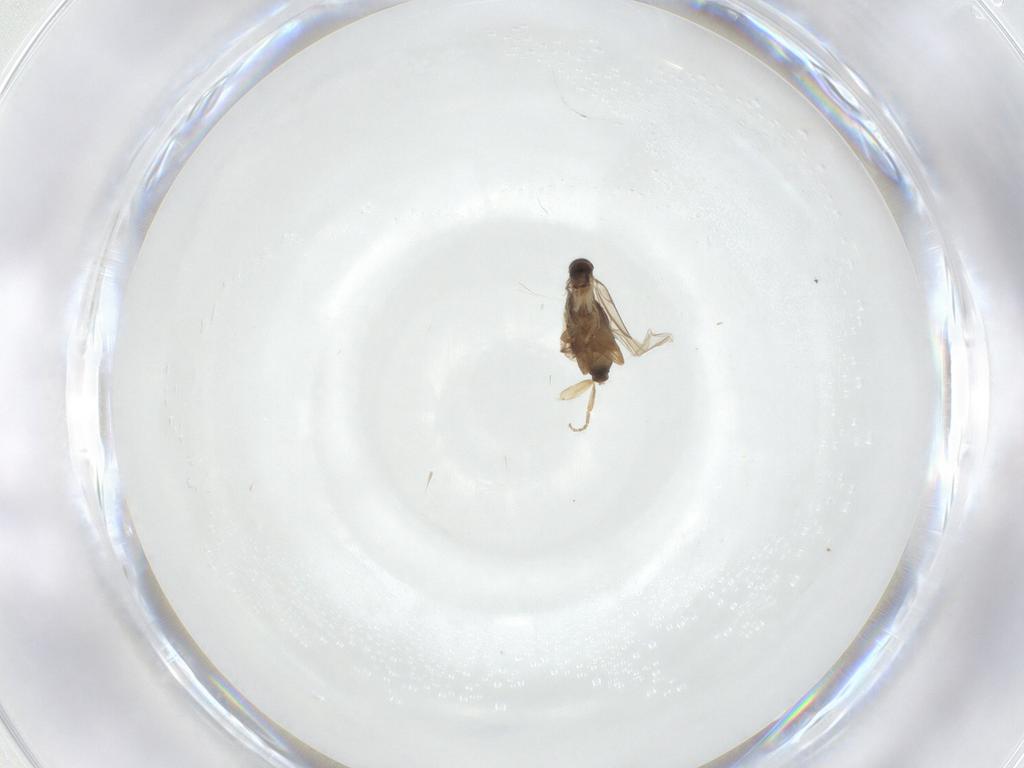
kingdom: Animalia
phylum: Arthropoda
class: Insecta
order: Diptera
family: Phoridae
